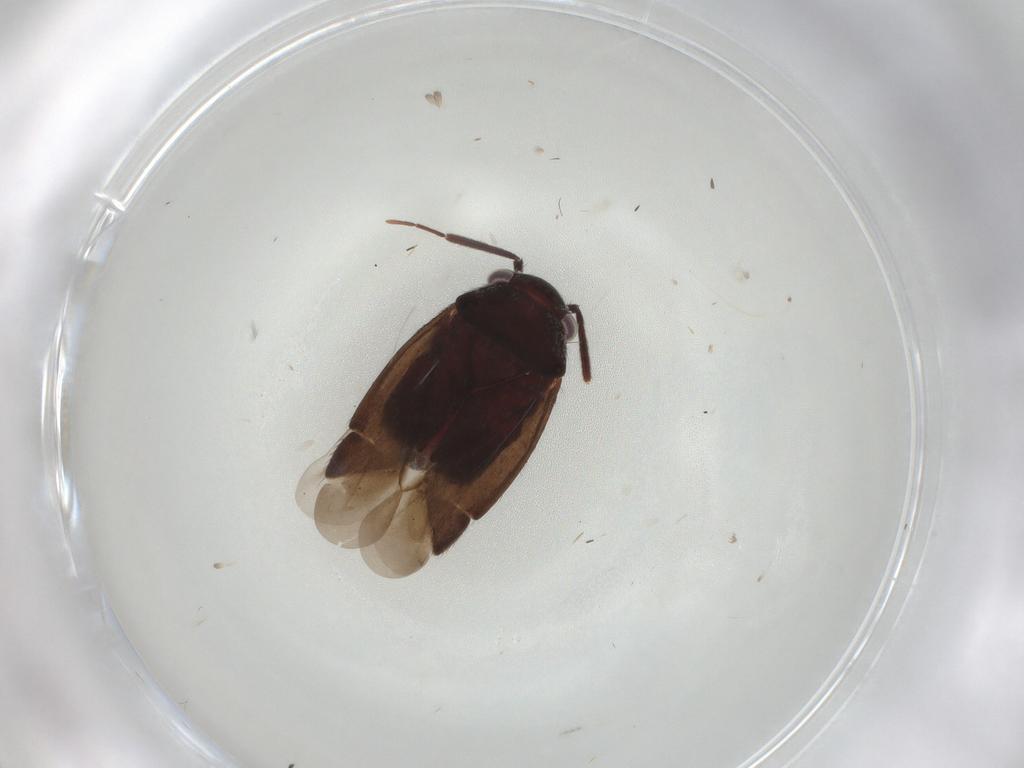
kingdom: Animalia
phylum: Arthropoda
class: Insecta
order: Hemiptera
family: Miridae
